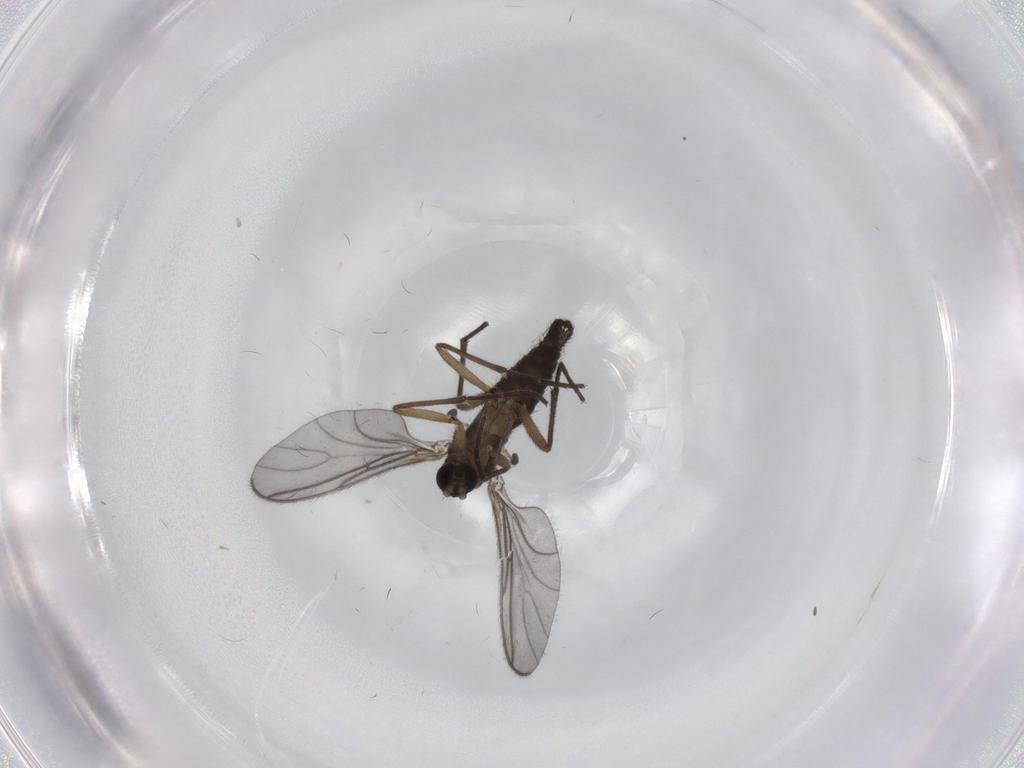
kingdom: Animalia
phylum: Arthropoda
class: Insecta
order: Diptera
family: Sciaridae
